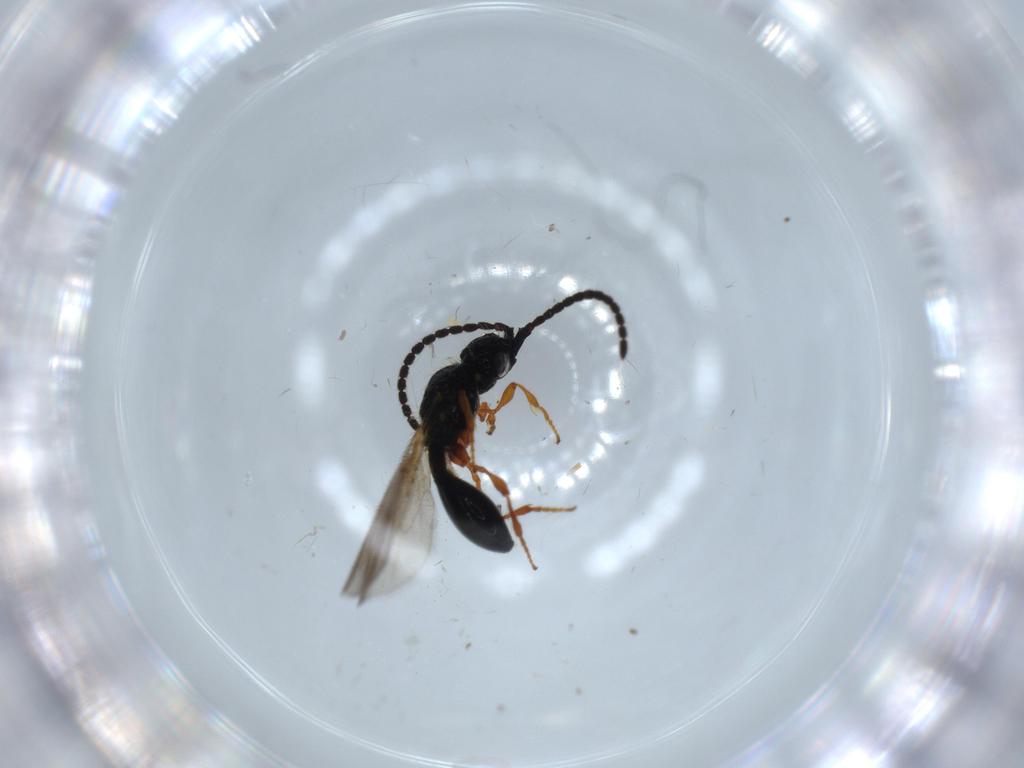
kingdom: Animalia
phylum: Arthropoda
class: Insecta
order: Hymenoptera
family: Diapriidae
